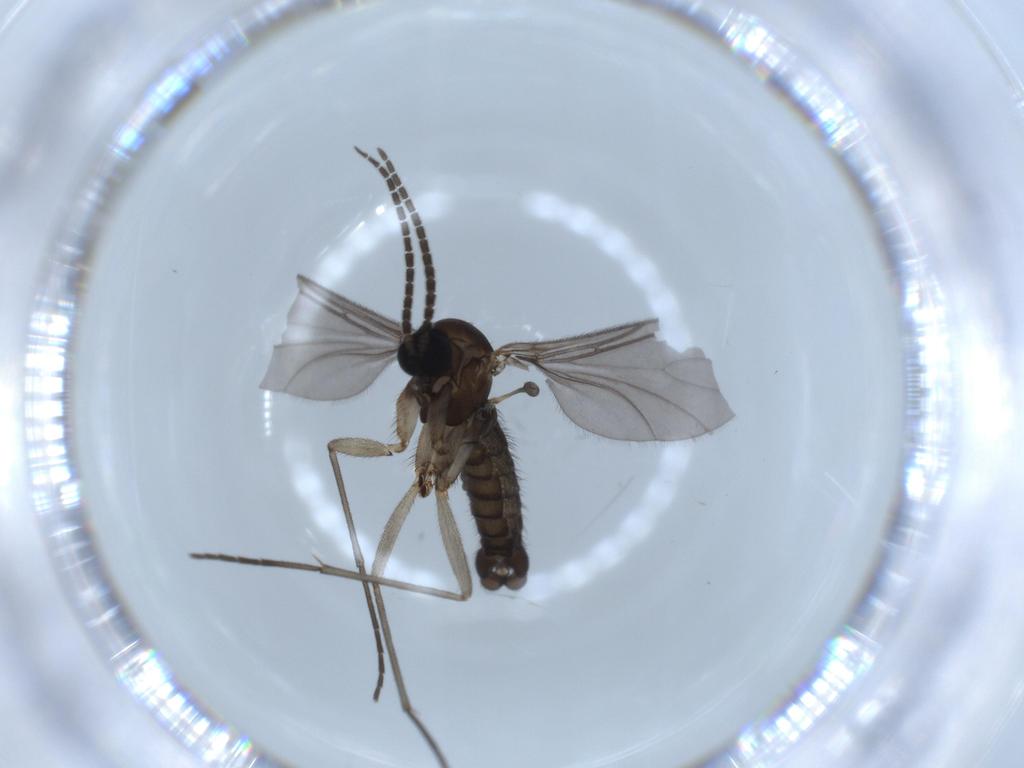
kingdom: Animalia
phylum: Arthropoda
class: Insecta
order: Diptera
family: Sciaridae
